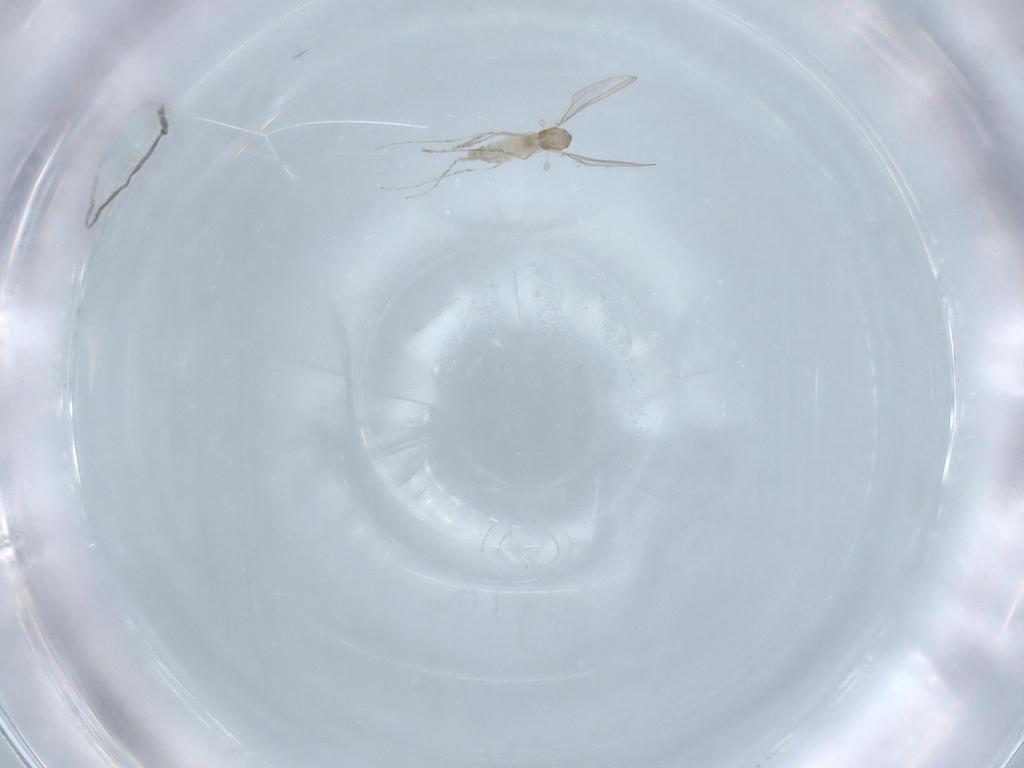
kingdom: Animalia
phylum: Arthropoda
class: Insecta
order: Diptera
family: Cecidomyiidae
